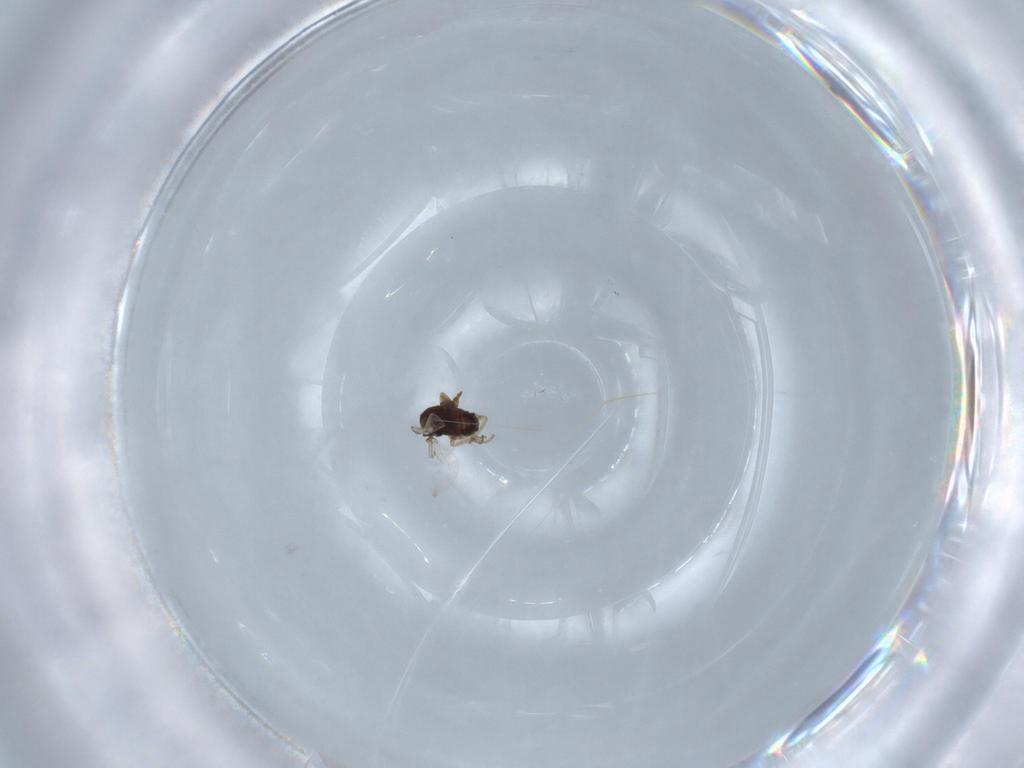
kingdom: Animalia
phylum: Arthropoda
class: Insecta
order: Diptera
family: Ceratopogonidae
